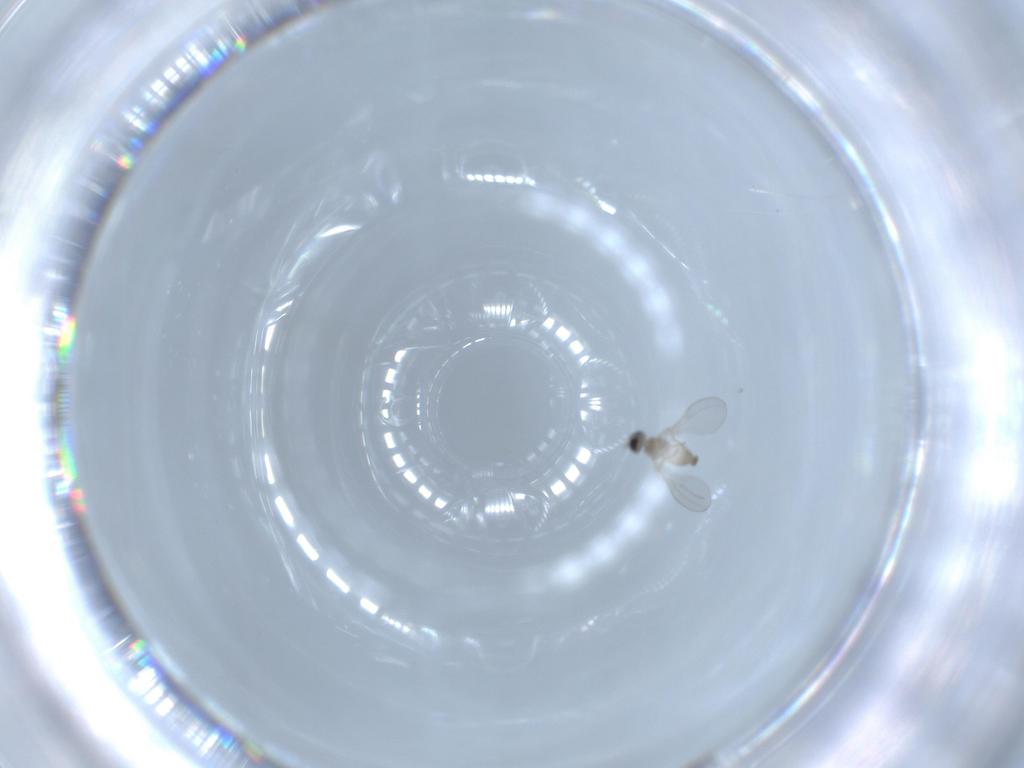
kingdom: Animalia
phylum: Arthropoda
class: Insecta
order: Diptera
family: Cecidomyiidae
